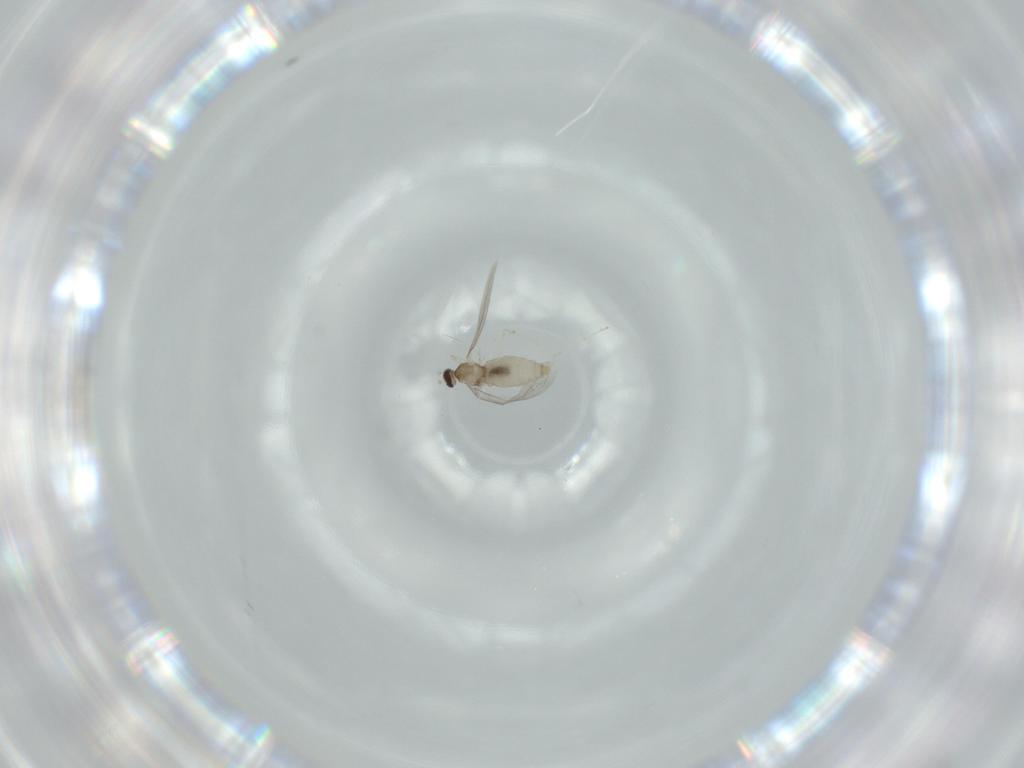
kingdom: Animalia
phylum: Arthropoda
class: Insecta
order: Diptera
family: Cecidomyiidae
